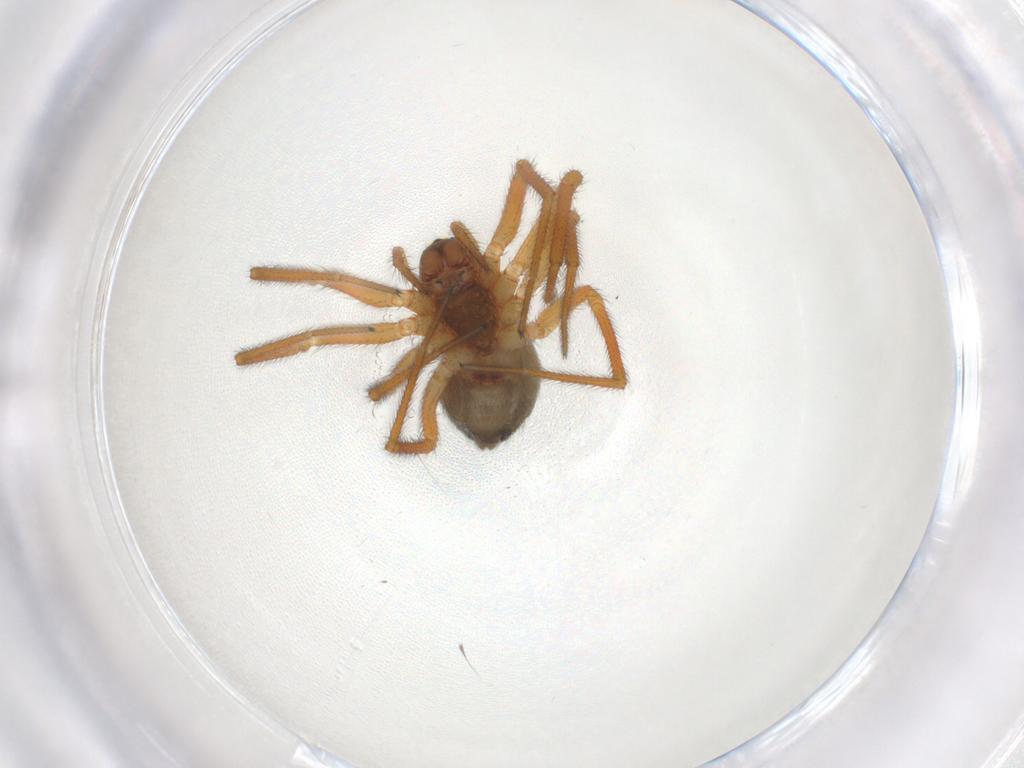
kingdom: Animalia
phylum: Arthropoda
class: Arachnida
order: Araneae
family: Linyphiidae
